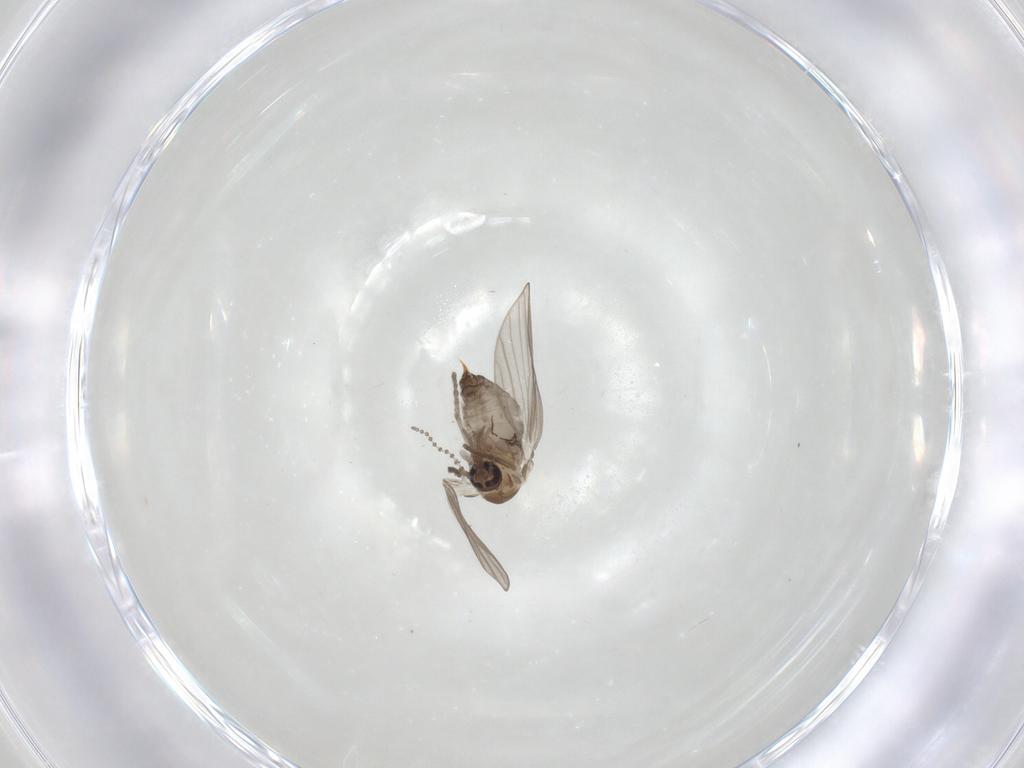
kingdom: Animalia
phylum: Arthropoda
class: Insecta
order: Diptera
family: Psychodidae
